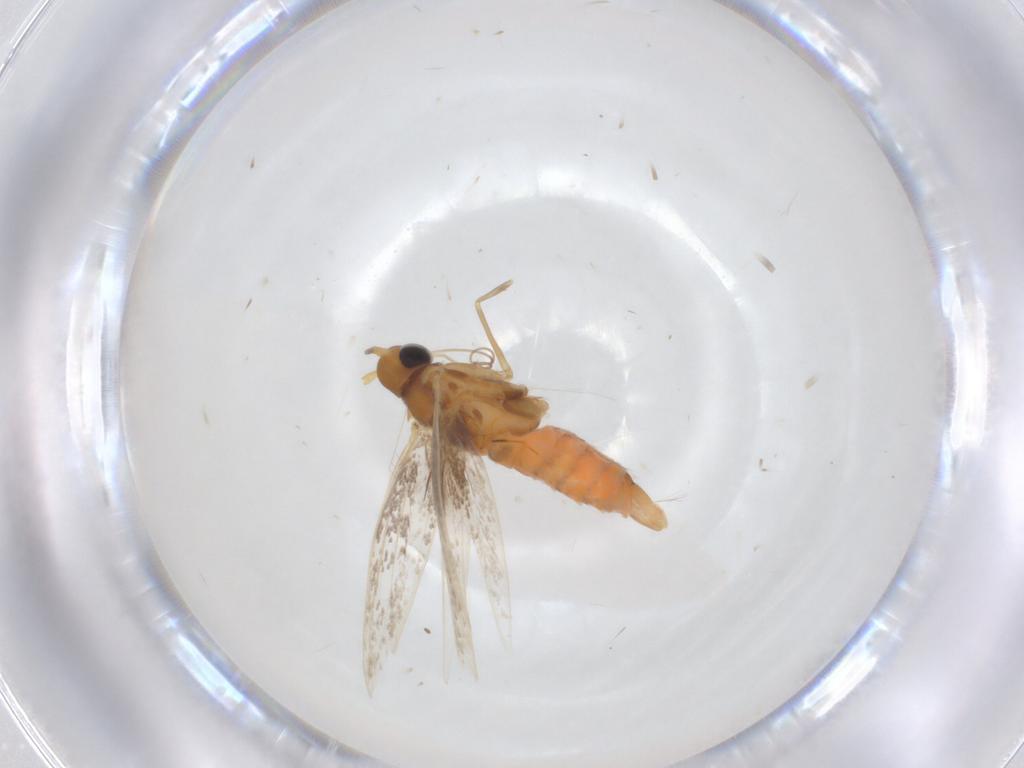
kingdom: Animalia
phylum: Arthropoda
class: Insecta
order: Lepidoptera
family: Gracillariidae
